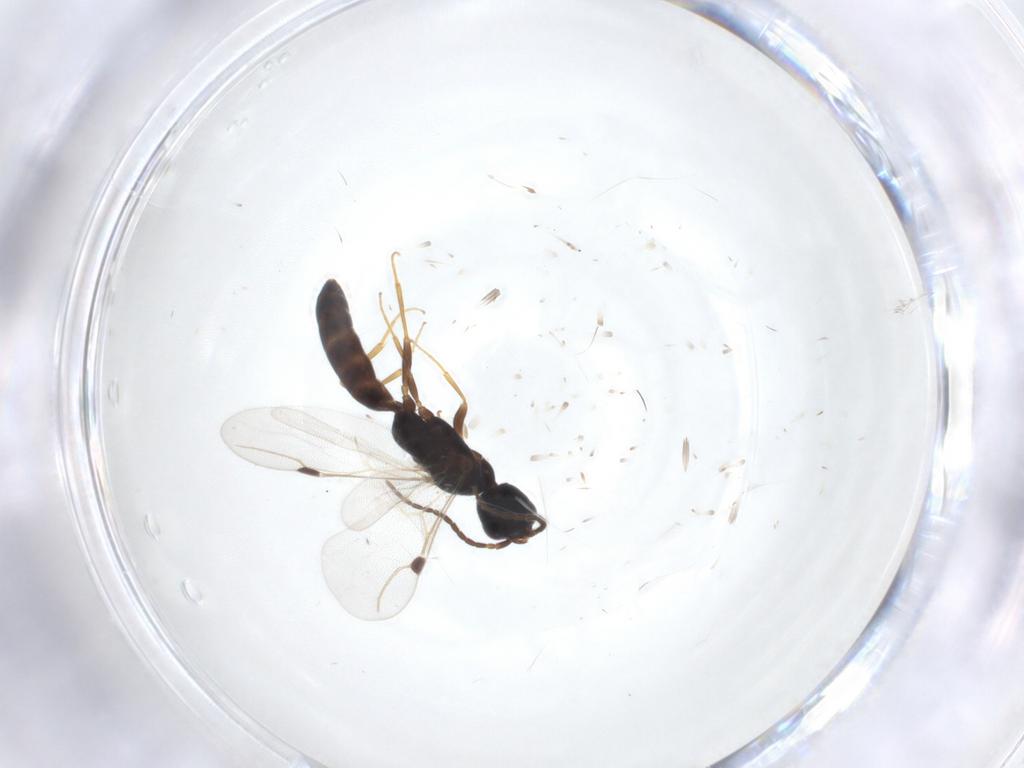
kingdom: Animalia
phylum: Arthropoda
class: Insecta
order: Hymenoptera
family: Bethylidae
